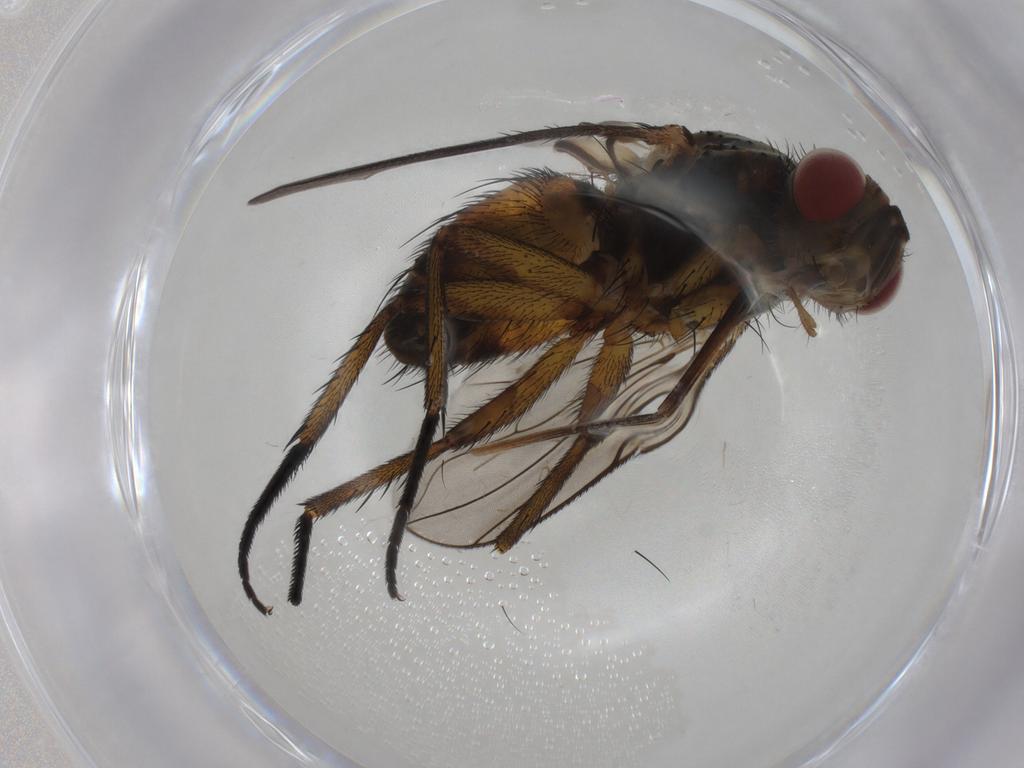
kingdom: Animalia
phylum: Arthropoda
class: Insecta
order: Diptera
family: Tachinidae
